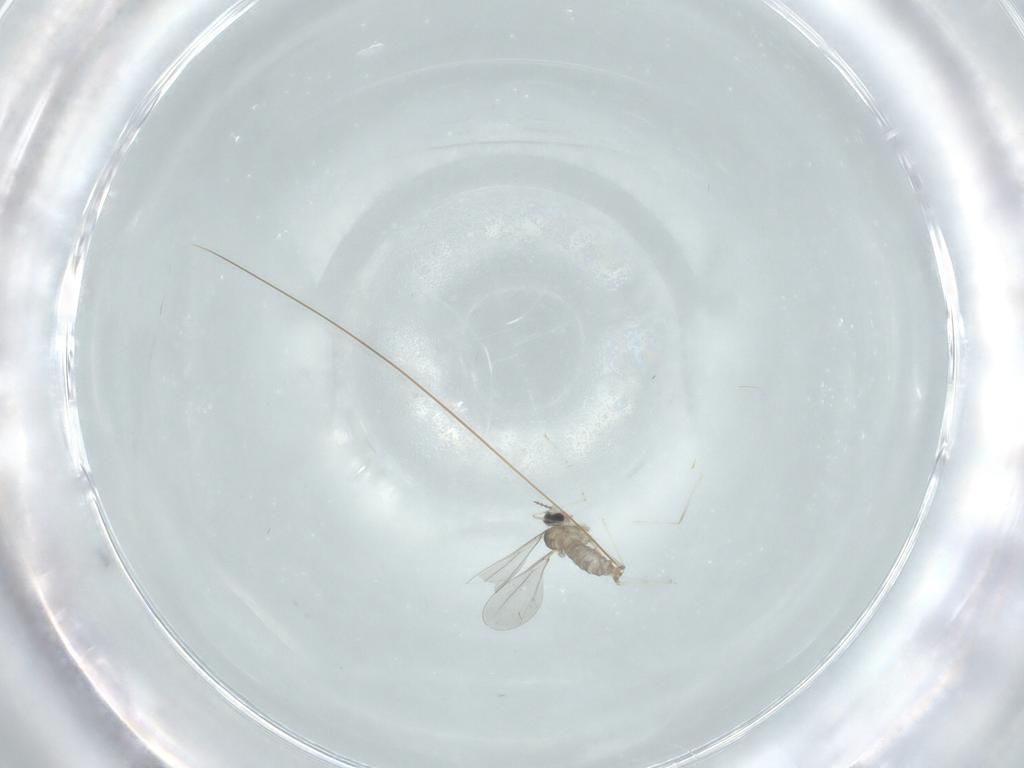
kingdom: Animalia
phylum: Arthropoda
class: Insecta
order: Diptera
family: Cecidomyiidae
